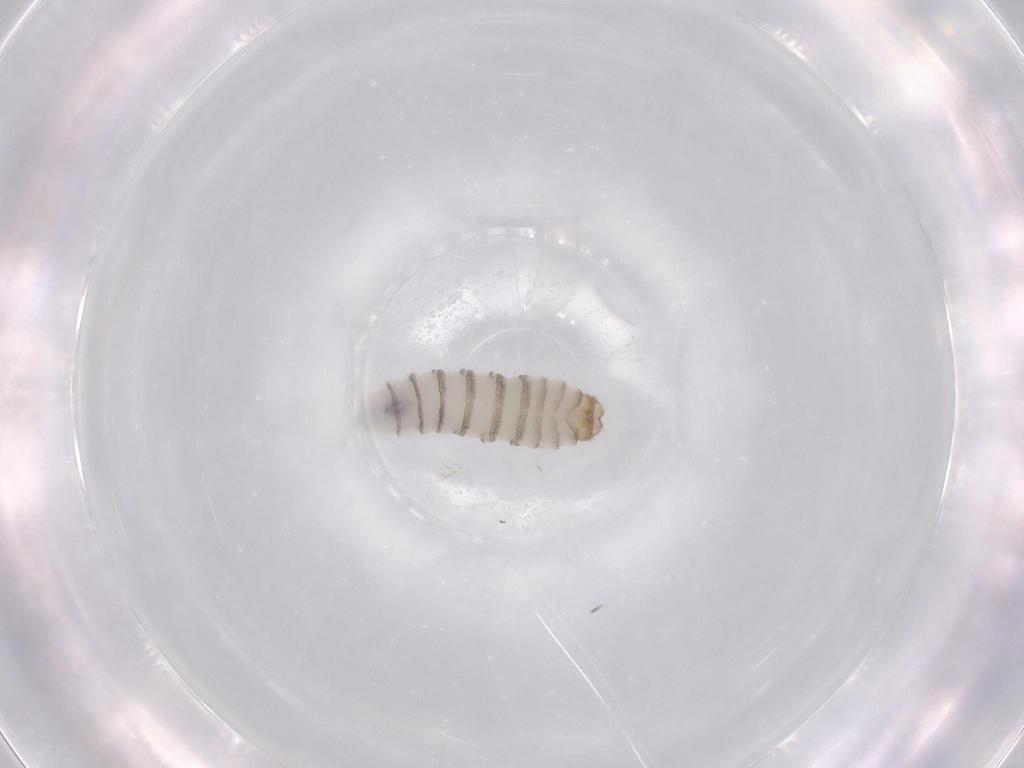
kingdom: Animalia
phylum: Arthropoda
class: Insecta
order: Diptera
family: Sarcophagidae
